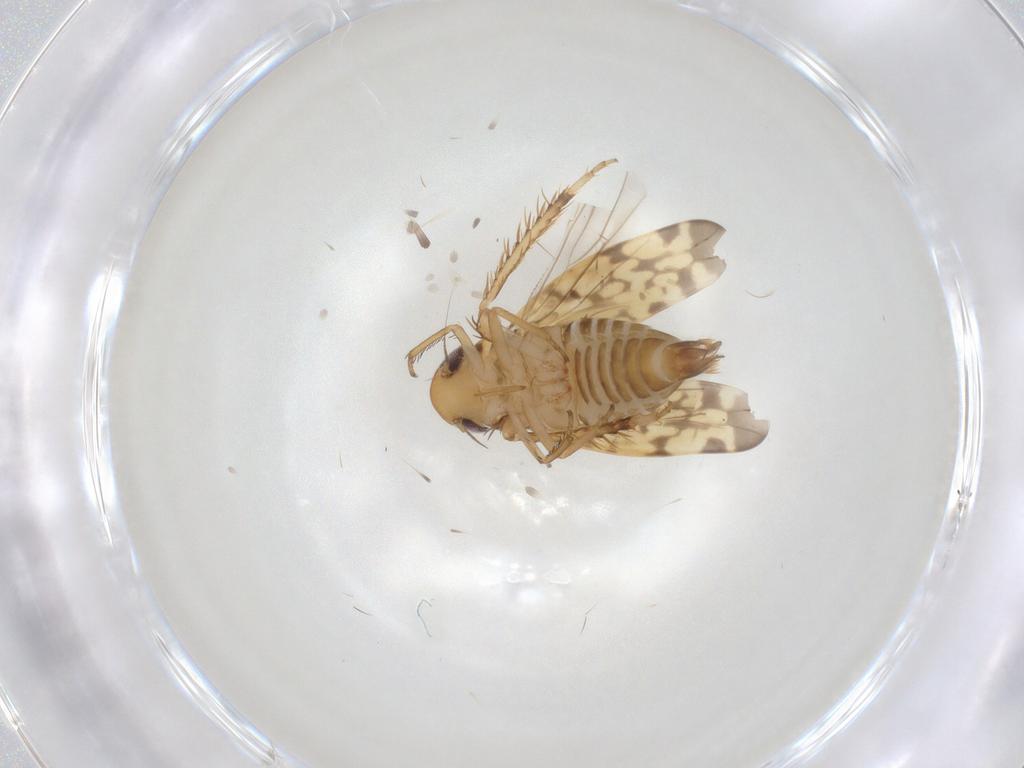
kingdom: Animalia
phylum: Arthropoda
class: Insecta
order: Hemiptera
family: Cicadellidae
